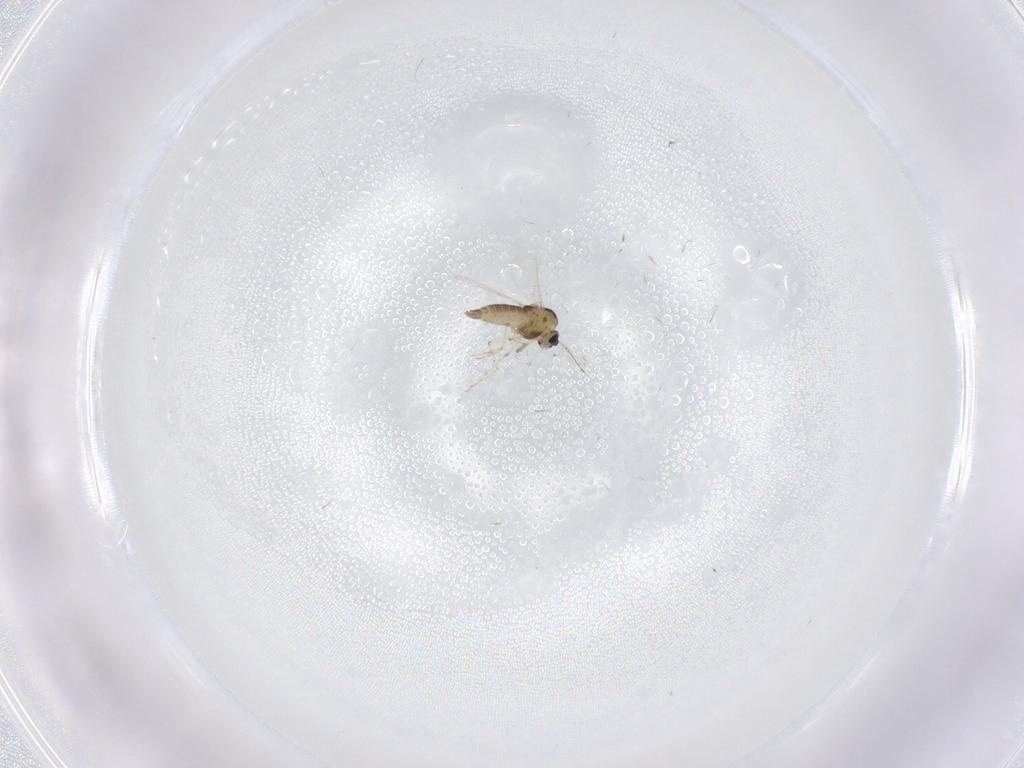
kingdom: Animalia
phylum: Arthropoda
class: Insecta
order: Diptera
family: Chironomidae
